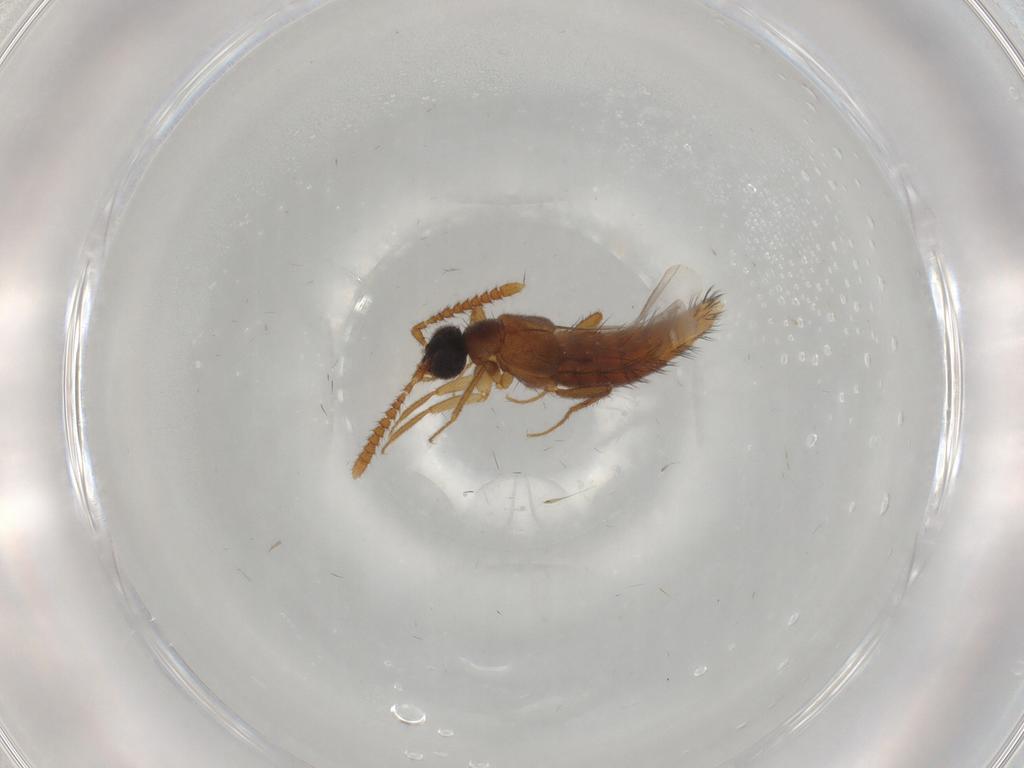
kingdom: Animalia
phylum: Arthropoda
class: Insecta
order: Coleoptera
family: Staphylinidae
